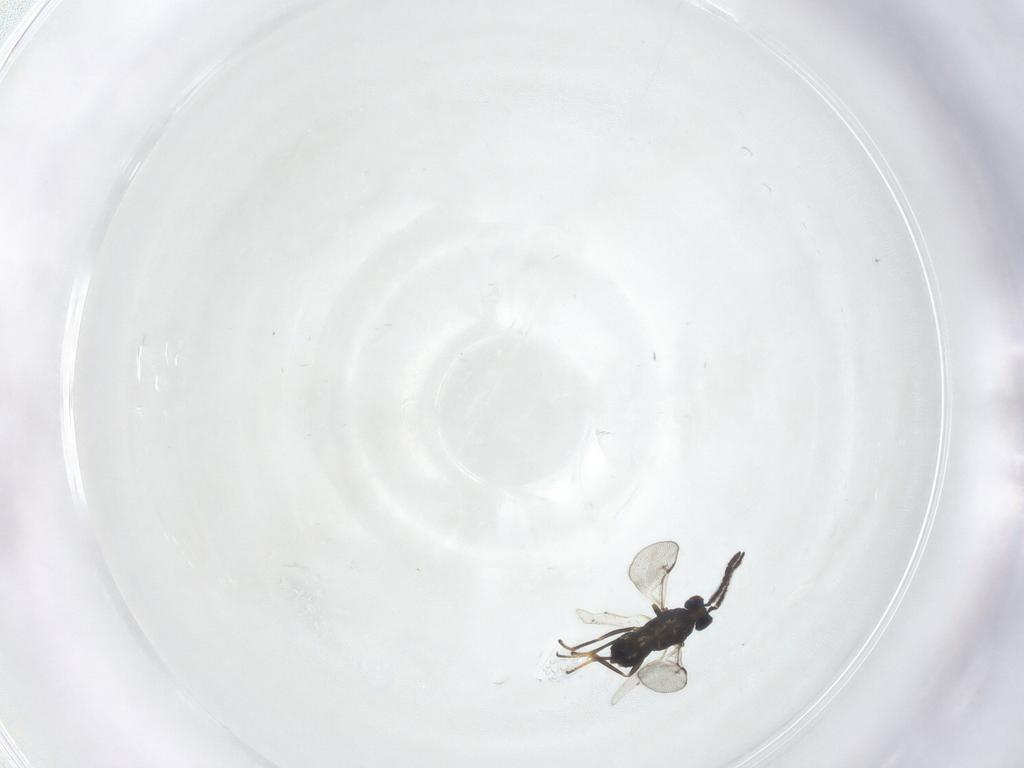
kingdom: Animalia
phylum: Arthropoda
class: Insecta
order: Hymenoptera
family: Encyrtidae
